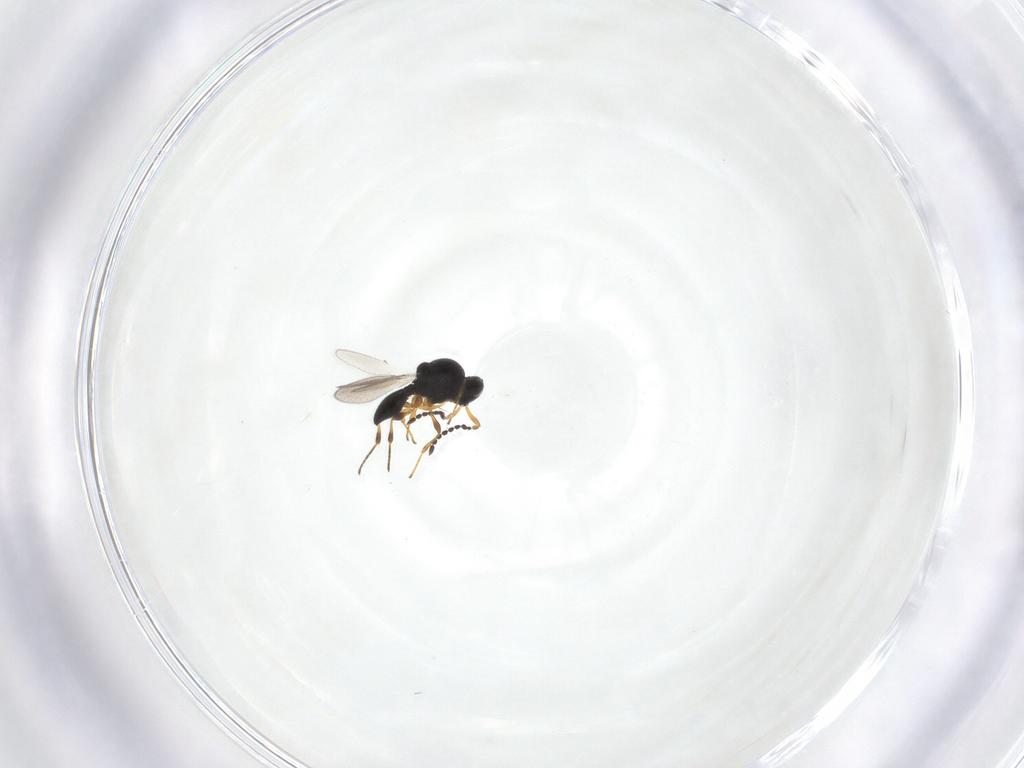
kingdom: Animalia
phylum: Arthropoda
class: Insecta
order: Hymenoptera
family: Platygastridae
